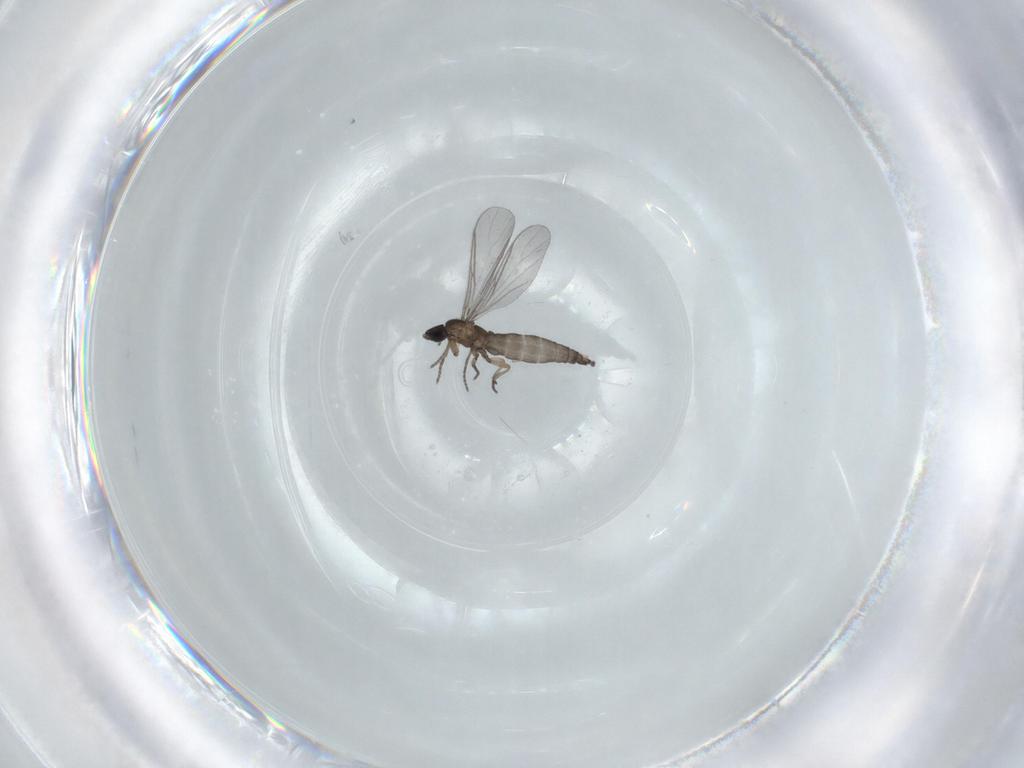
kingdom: Animalia
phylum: Arthropoda
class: Insecta
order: Diptera
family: Sciaridae
